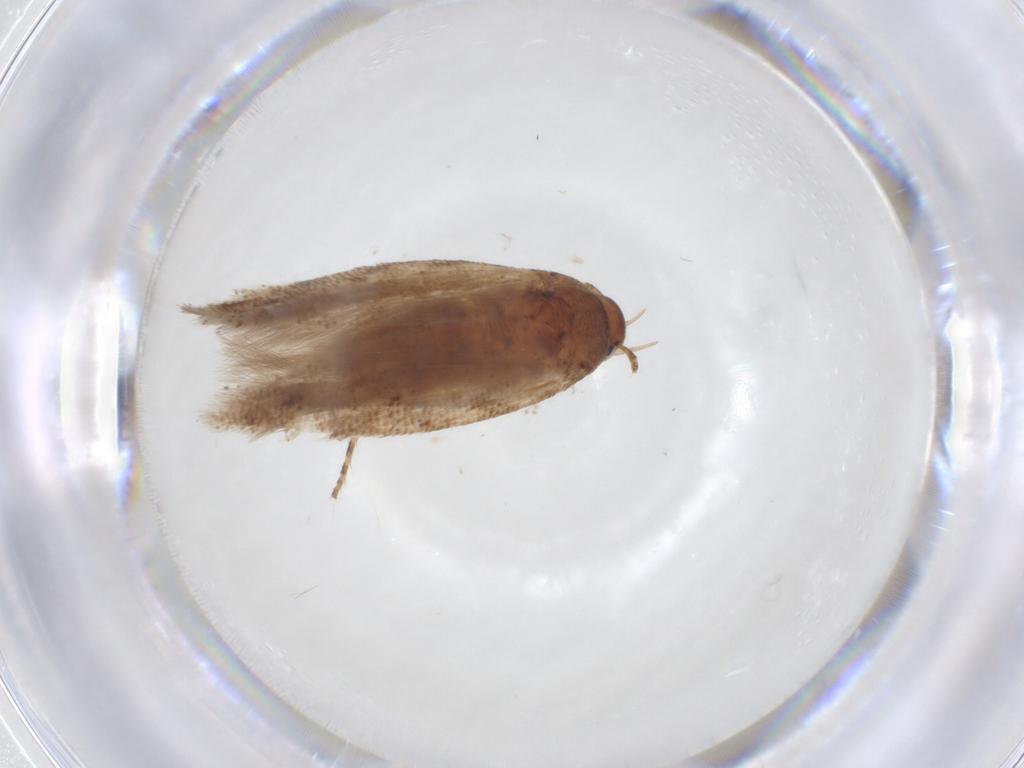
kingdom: Animalia
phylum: Arthropoda
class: Insecta
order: Lepidoptera
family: Gelechiidae
